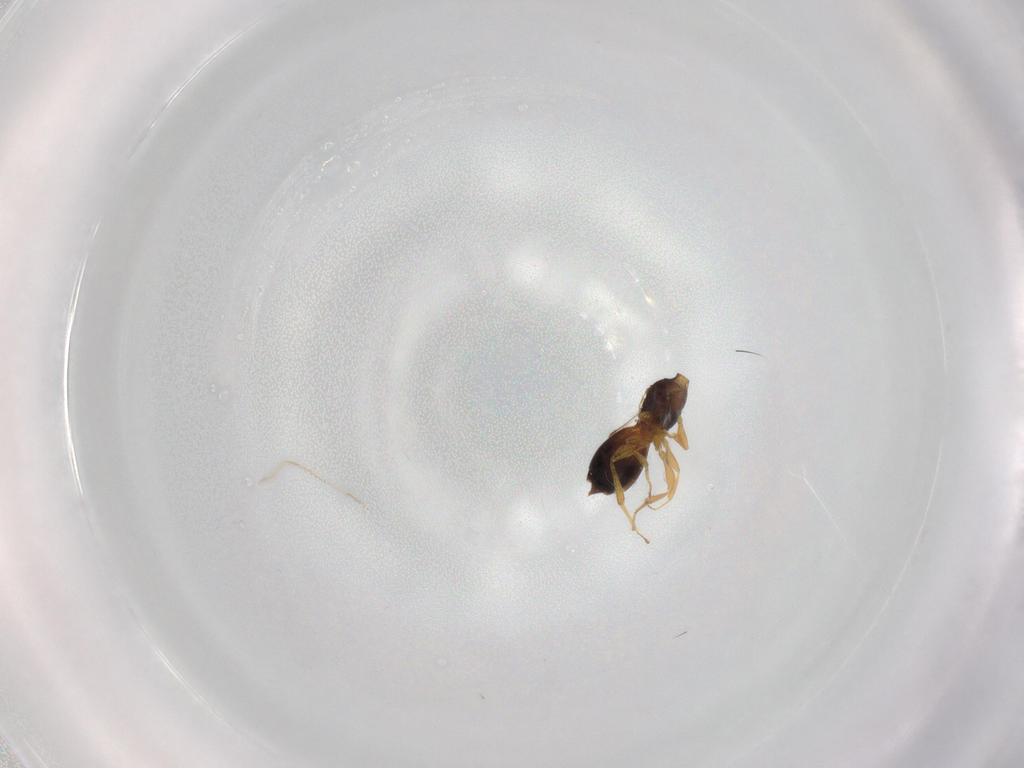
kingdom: Animalia
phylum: Arthropoda
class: Insecta
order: Hymenoptera
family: Megaspilidae
